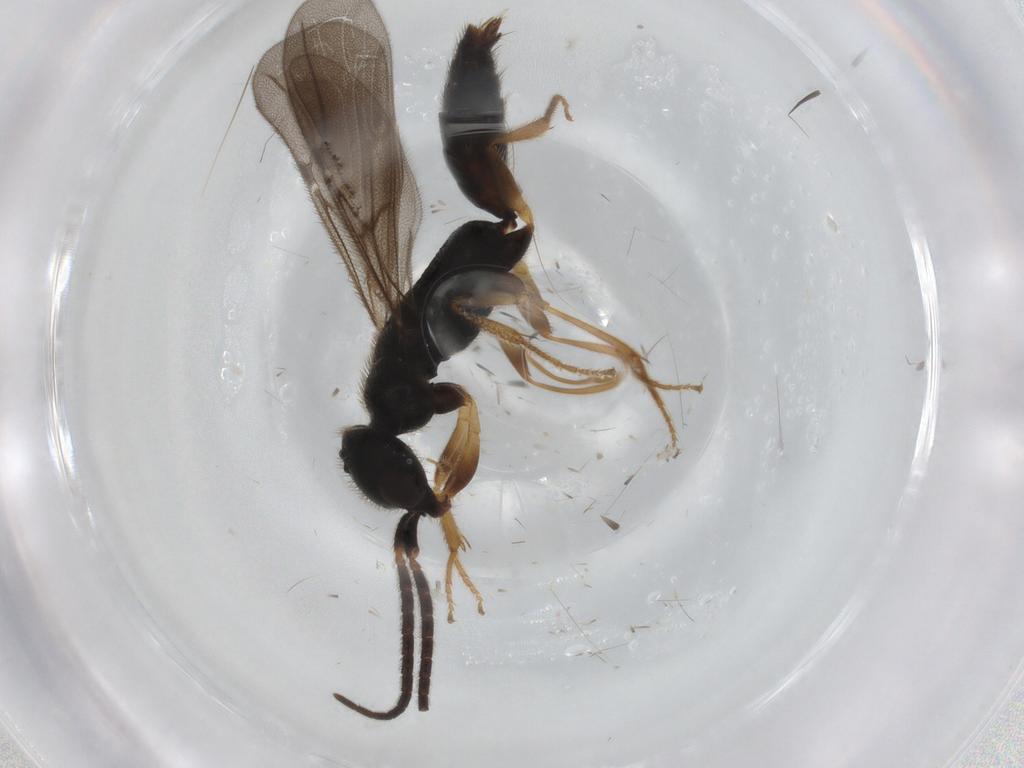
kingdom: Animalia
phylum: Arthropoda
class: Insecta
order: Hymenoptera
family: Bethylidae
